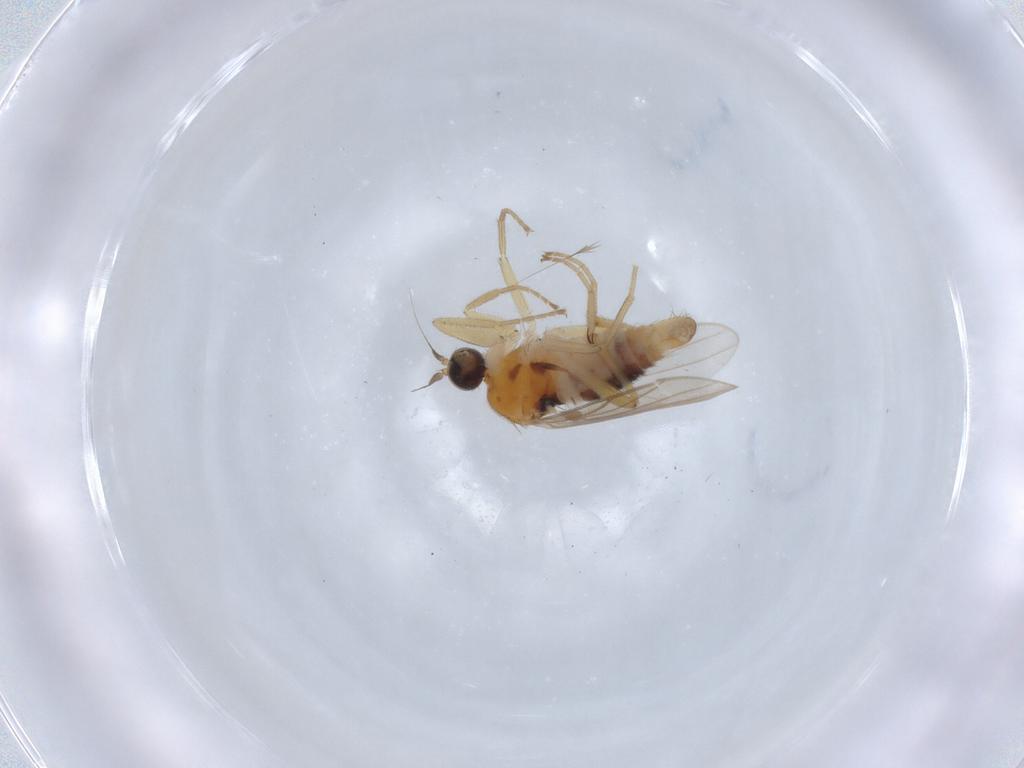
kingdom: Animalia
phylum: Arthropoda
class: Insecta
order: Diptera
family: Hybotidae
